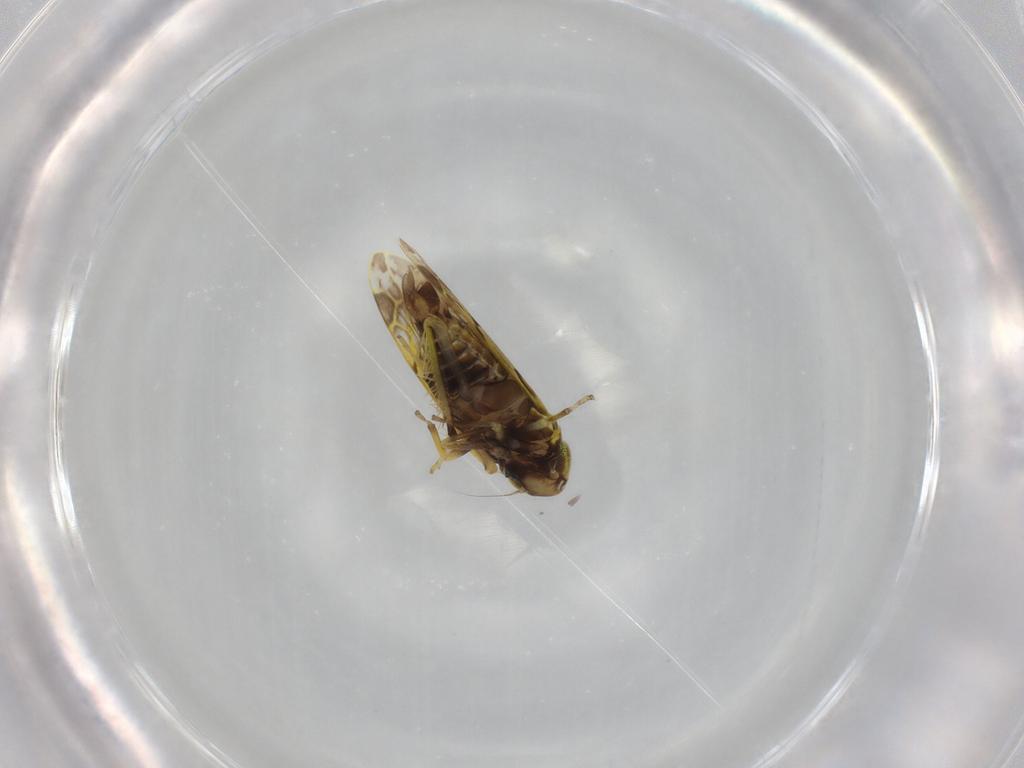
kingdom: Animalia
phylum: Arthropoda
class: Insecta
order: Hemiptera
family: Cicadellidae
